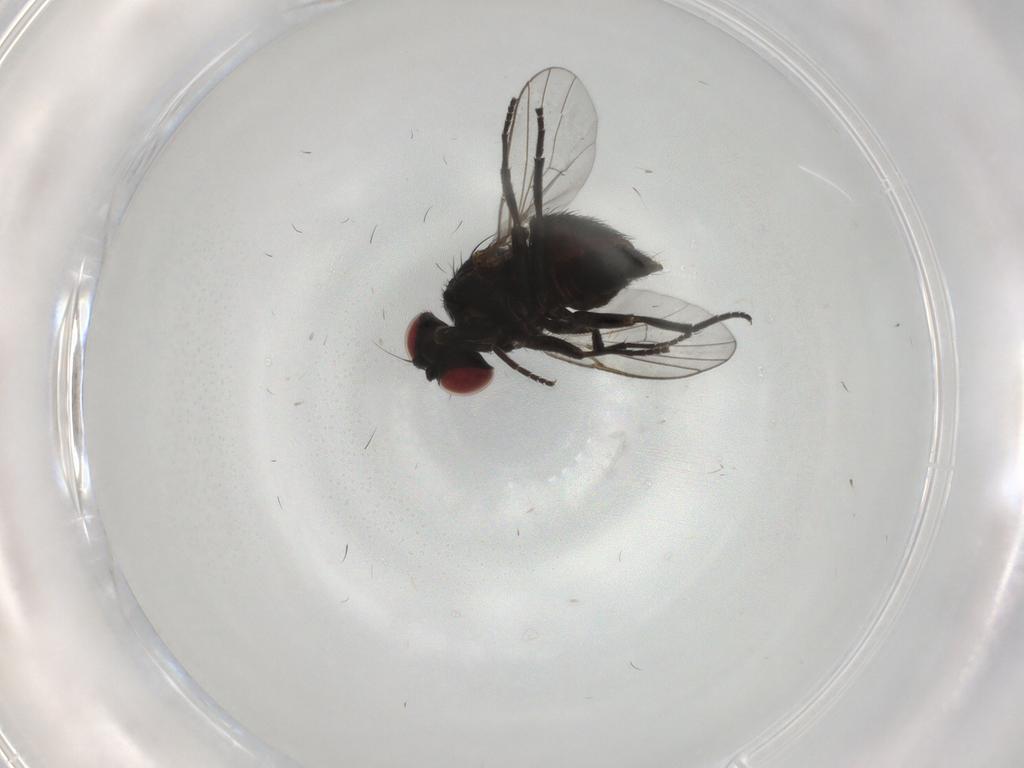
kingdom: Animalia
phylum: Arthropoda
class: Insecta
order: Diptera
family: Agromyzidae
